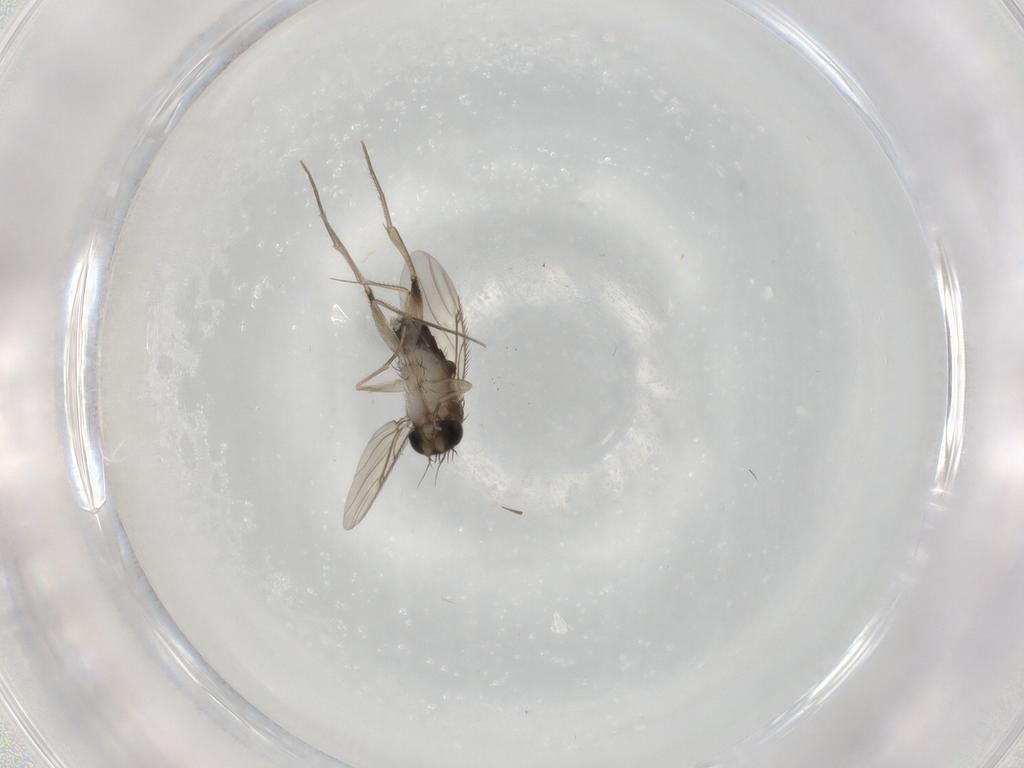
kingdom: Animalia
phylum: Arthropoda
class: Insecta
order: Diptera
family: Phoridae
